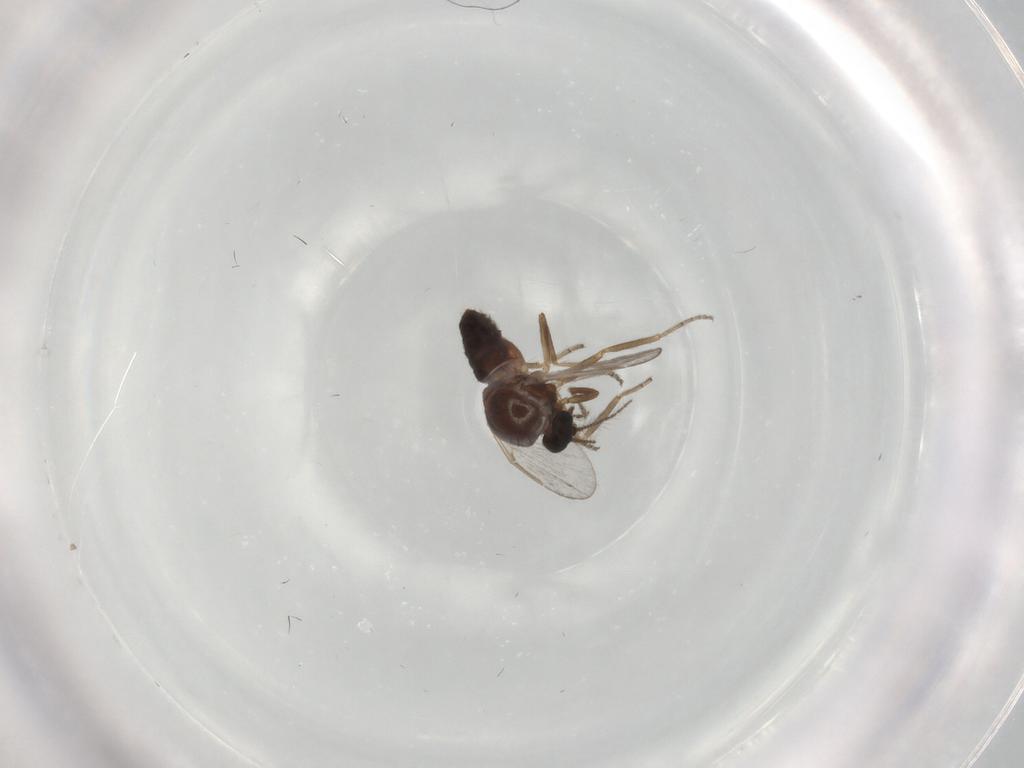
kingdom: Animalia
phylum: Arthropoda
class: Insecta
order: Diptera
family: Ceratopogonidae
